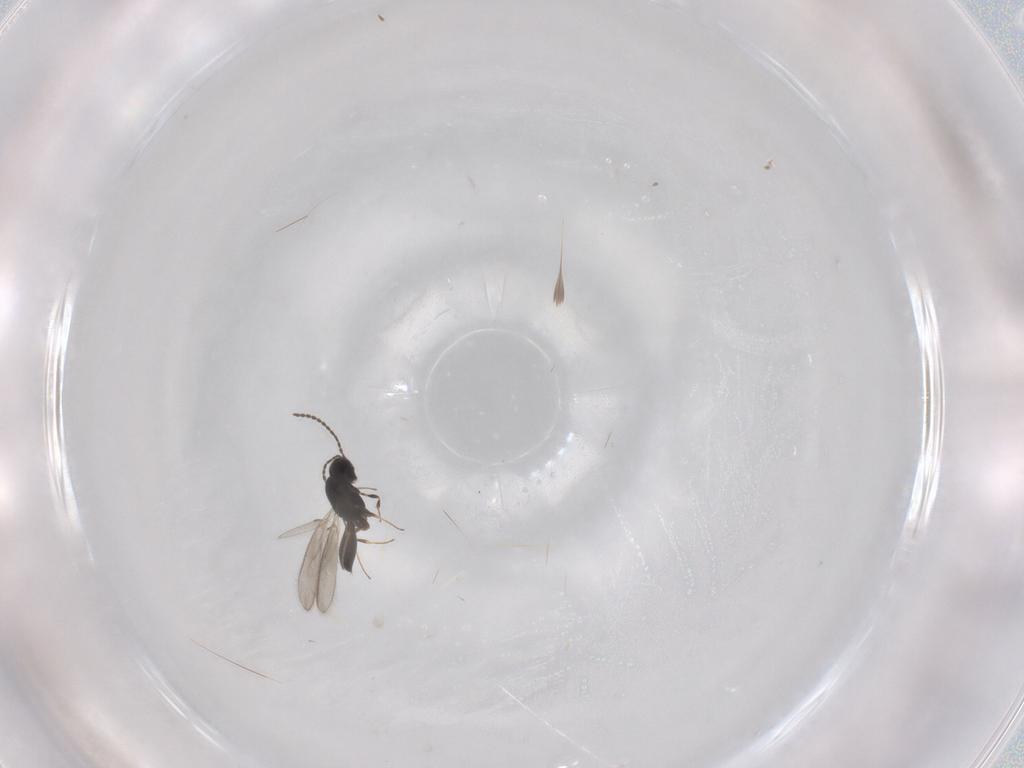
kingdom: Animalia
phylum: Arthropoda
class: Insecta
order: Hymenoptera
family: Scelionidae
